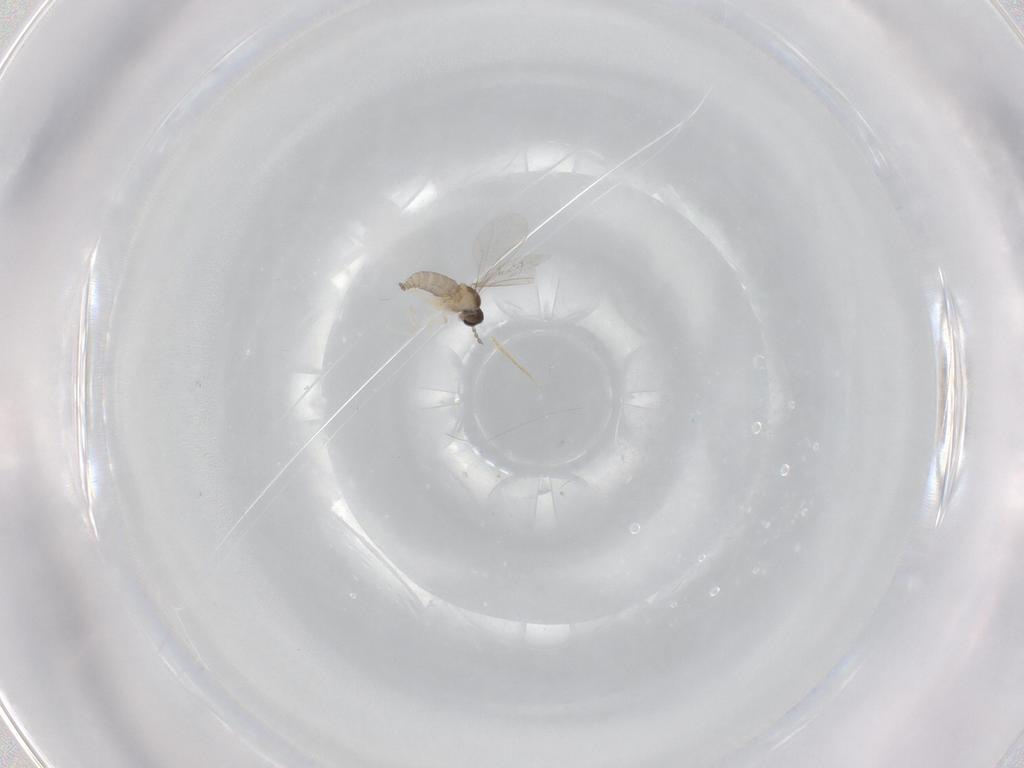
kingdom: Animalia
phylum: Arthropoda
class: Insecta
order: Diptera
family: Cecidomyiidae
